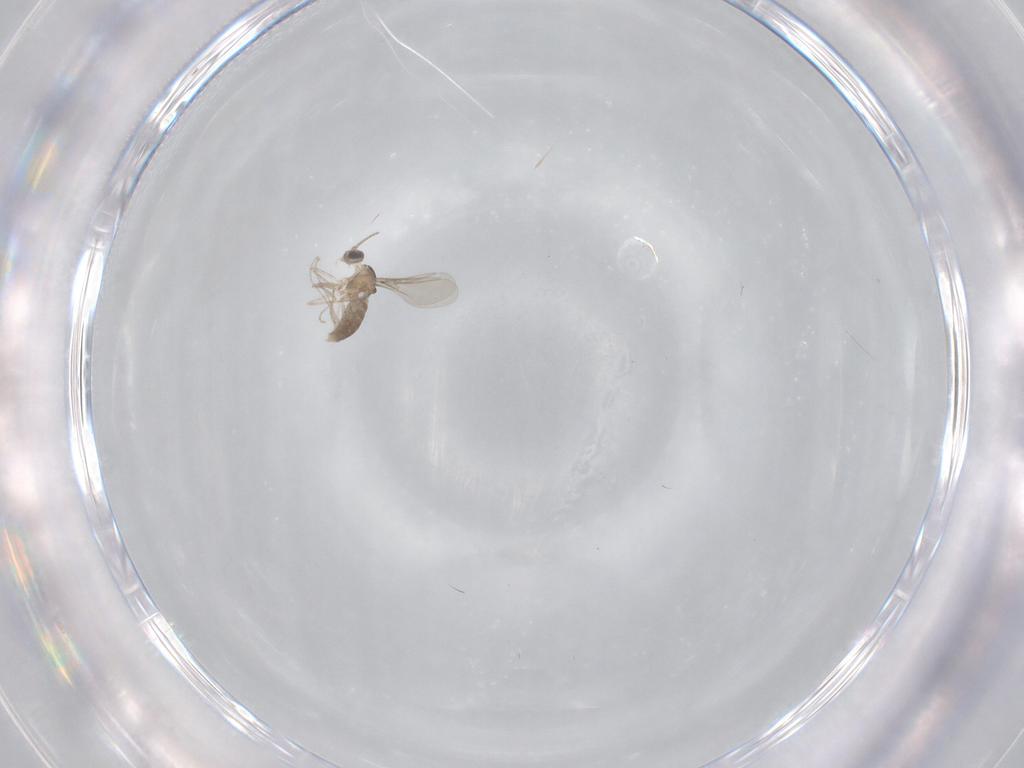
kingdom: Animalia
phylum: Arthropoda
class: Insecta
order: Diptera
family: Cecidomyiidae
